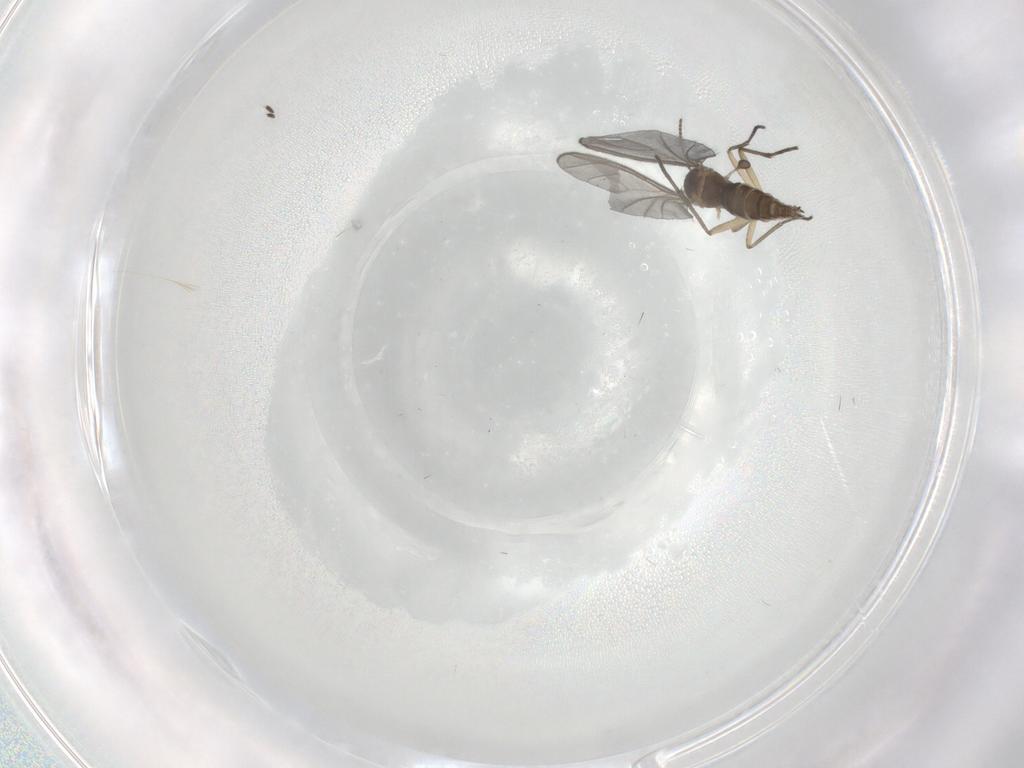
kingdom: Animalia
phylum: Arthropoda
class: Insecta
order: Diptera
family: Sciaridae
